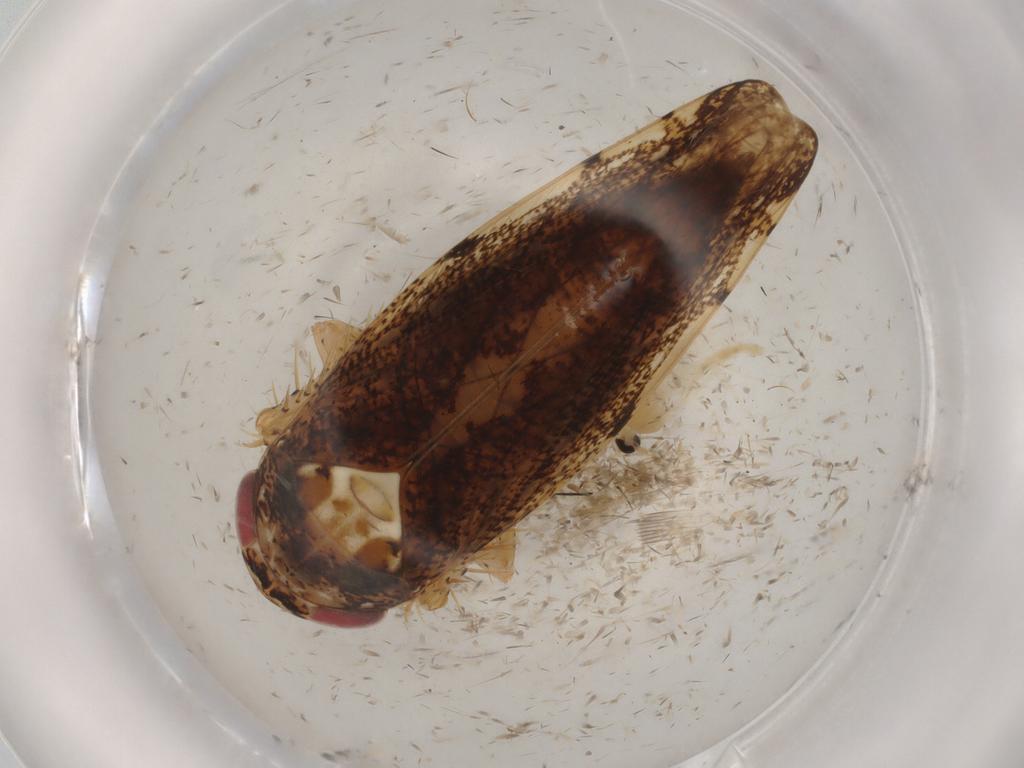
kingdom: Animalia
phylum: Arthropoda
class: Insecta
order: Hemiptera
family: Cicadellidae
